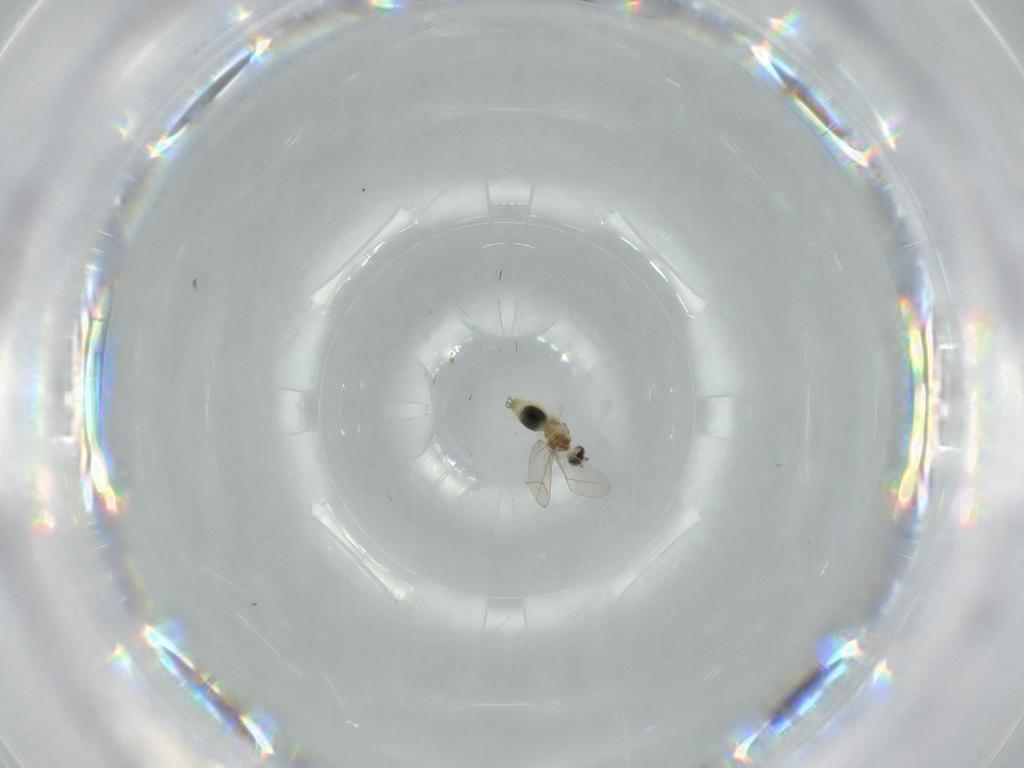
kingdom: Animalia
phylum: Arthropoda
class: Insecta
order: Diptera
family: Cecidomyiidae
